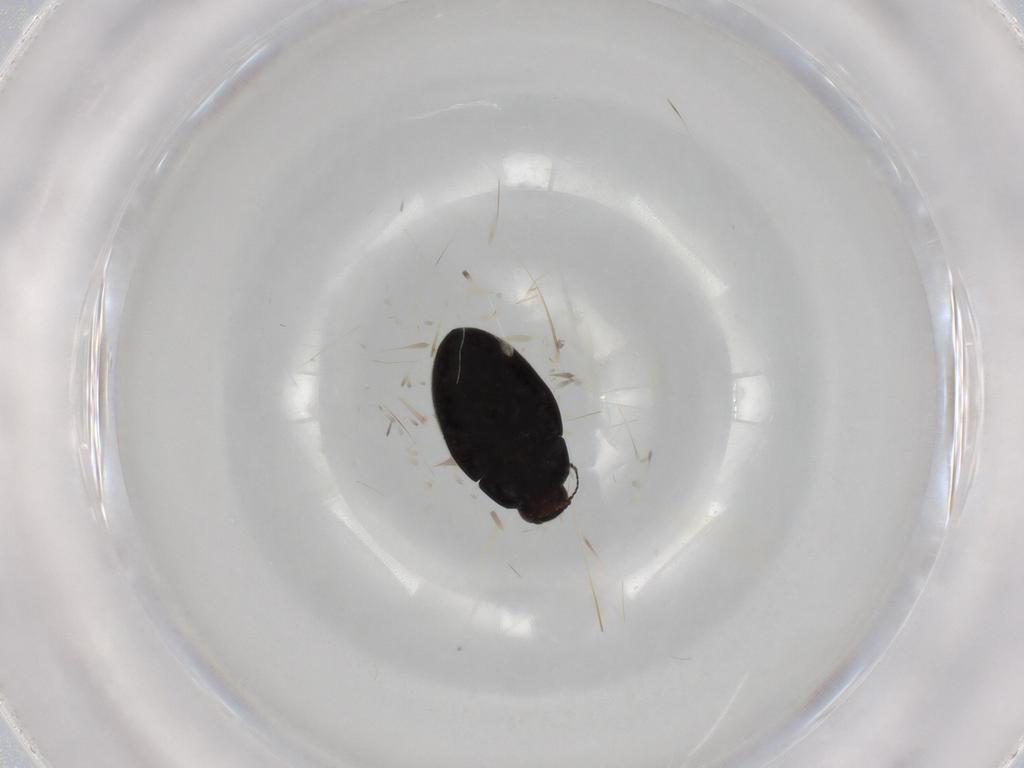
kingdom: Animalia
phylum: Arthropoda
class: Insecta
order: Coleoptera
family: Limnichidae
